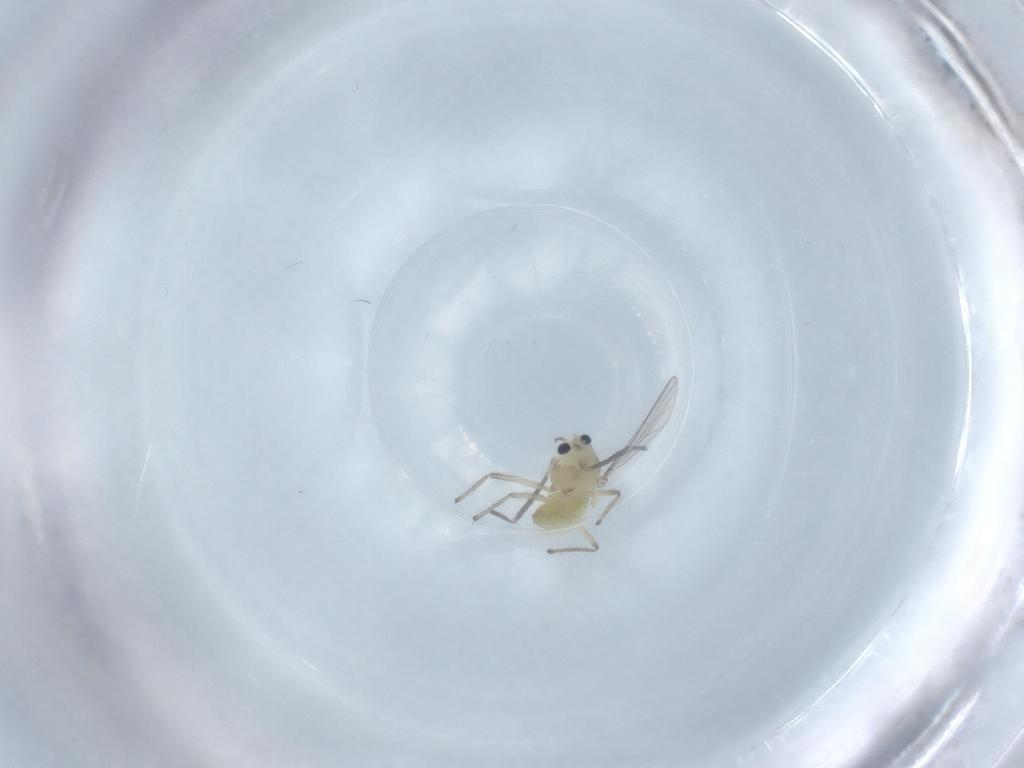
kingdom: Animalia
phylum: Arthropoda
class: Insecta
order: Diptera
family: Chironomidae
